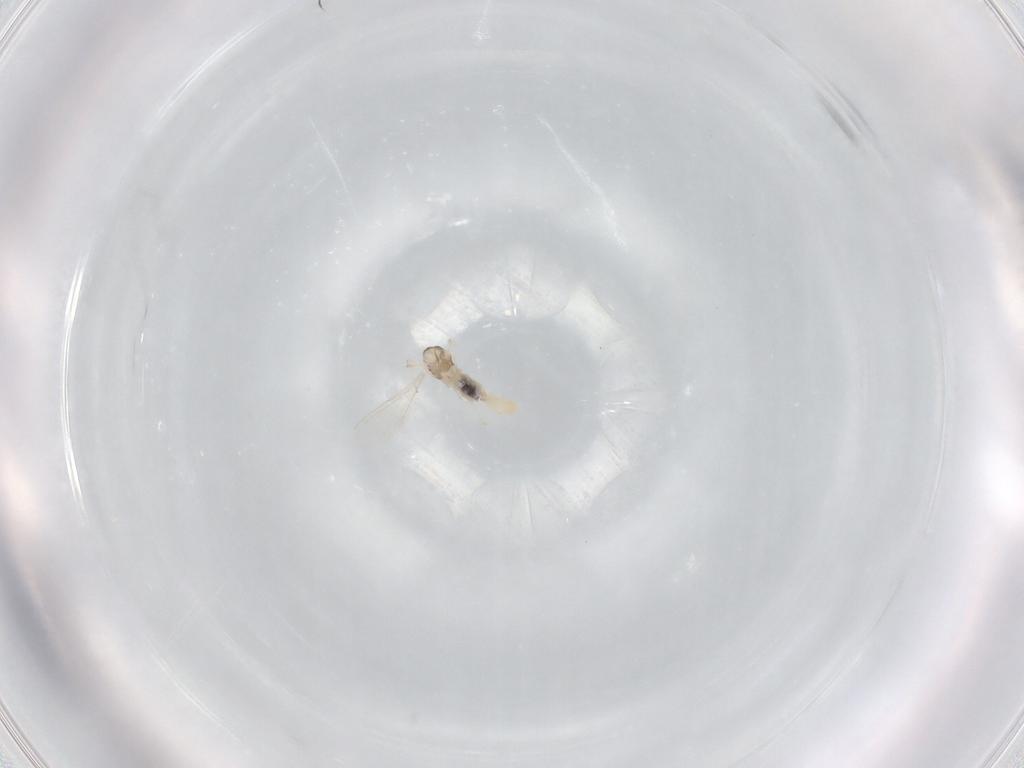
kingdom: Animalia
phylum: Arthropoda
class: Insecta
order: Diptera
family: Cecidomyiidae
